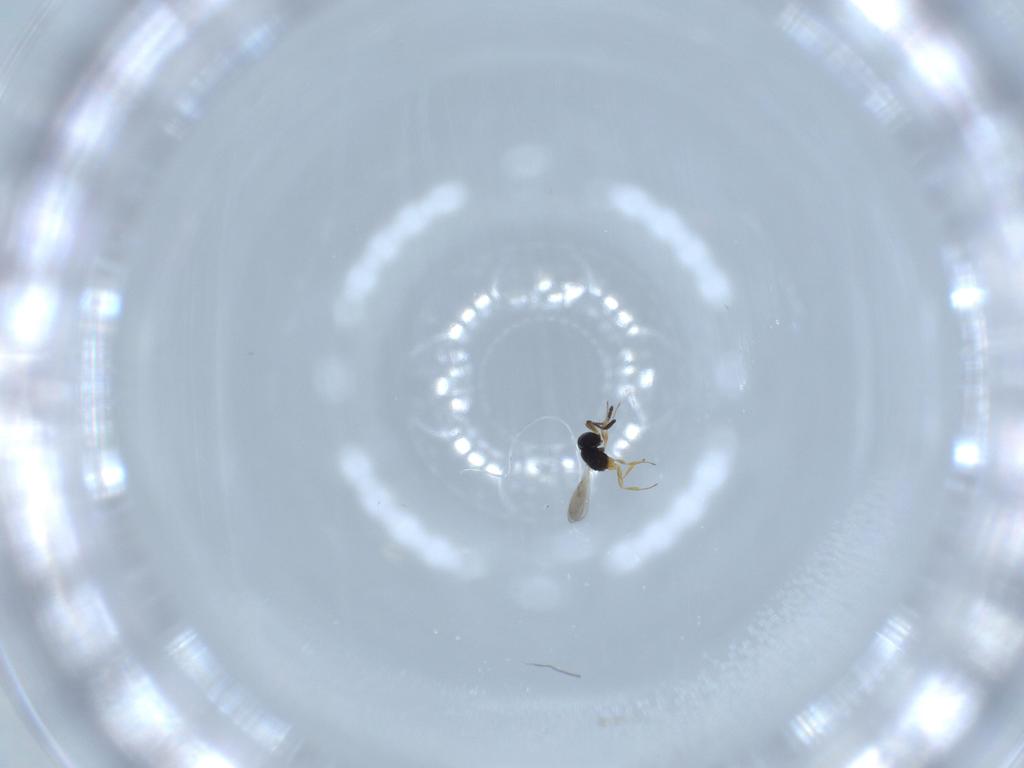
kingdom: Animalia
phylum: Arthropoda
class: Insecta
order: Hymenoptera
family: Scelionidae
